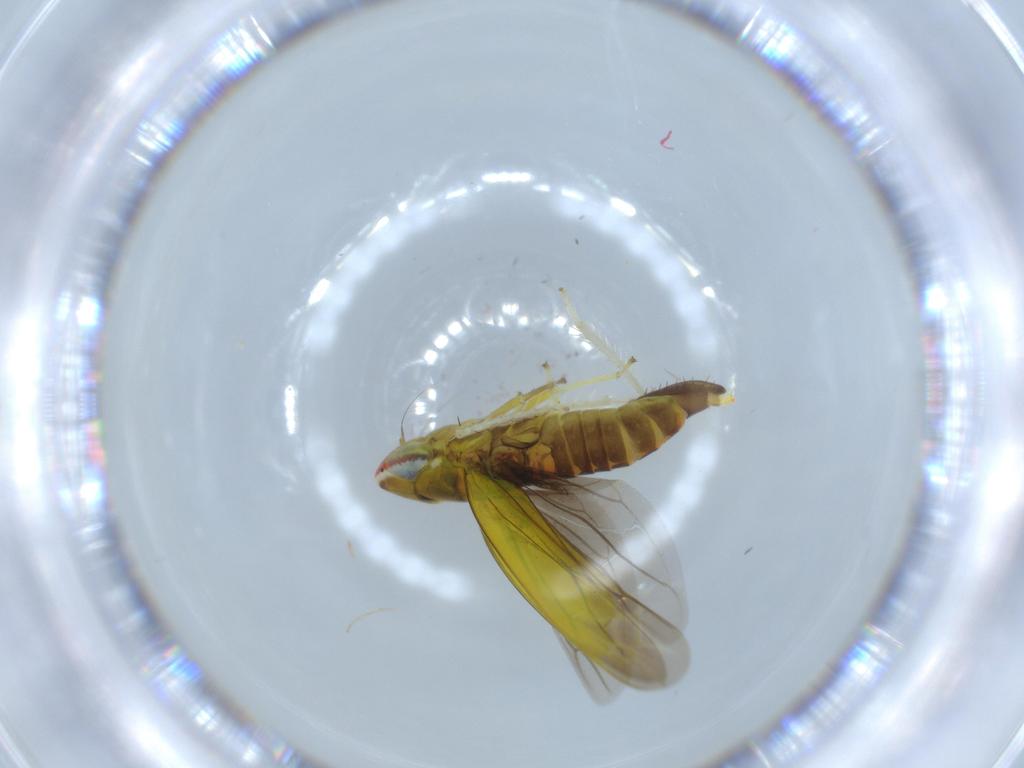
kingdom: Animalia
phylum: Arthropoda
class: Insecta
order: Hemiptera
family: Cicadellidae
